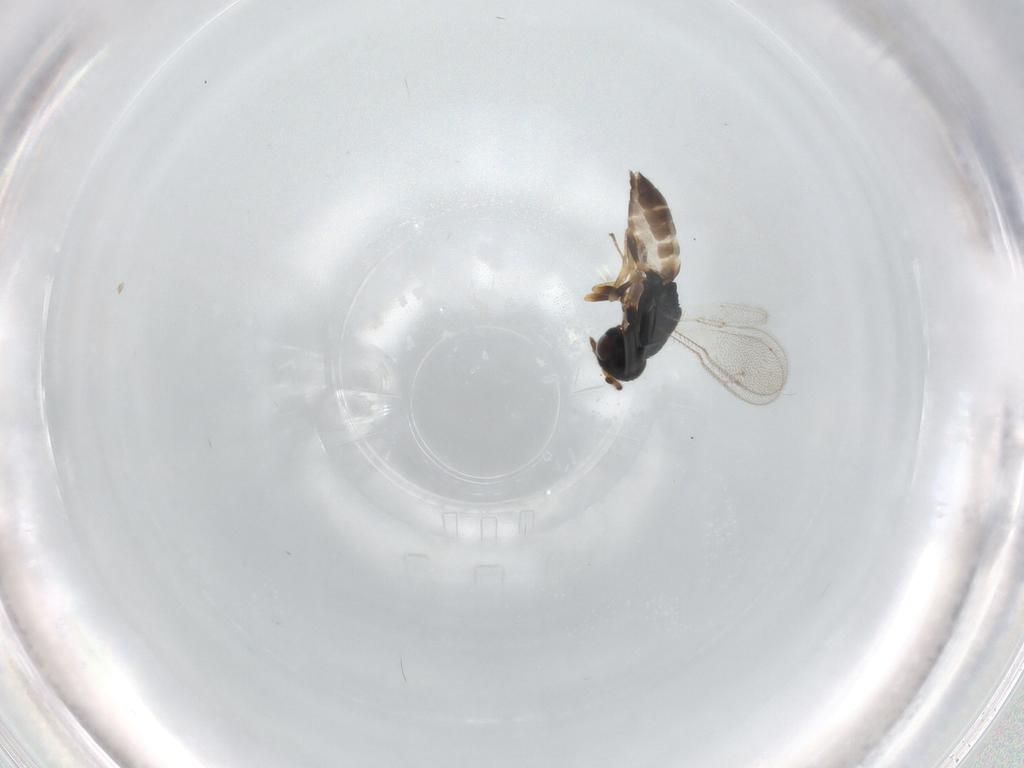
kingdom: Animalia
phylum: Arthropoda
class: Insecta
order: Hymenoptera
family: Pteromalidae
